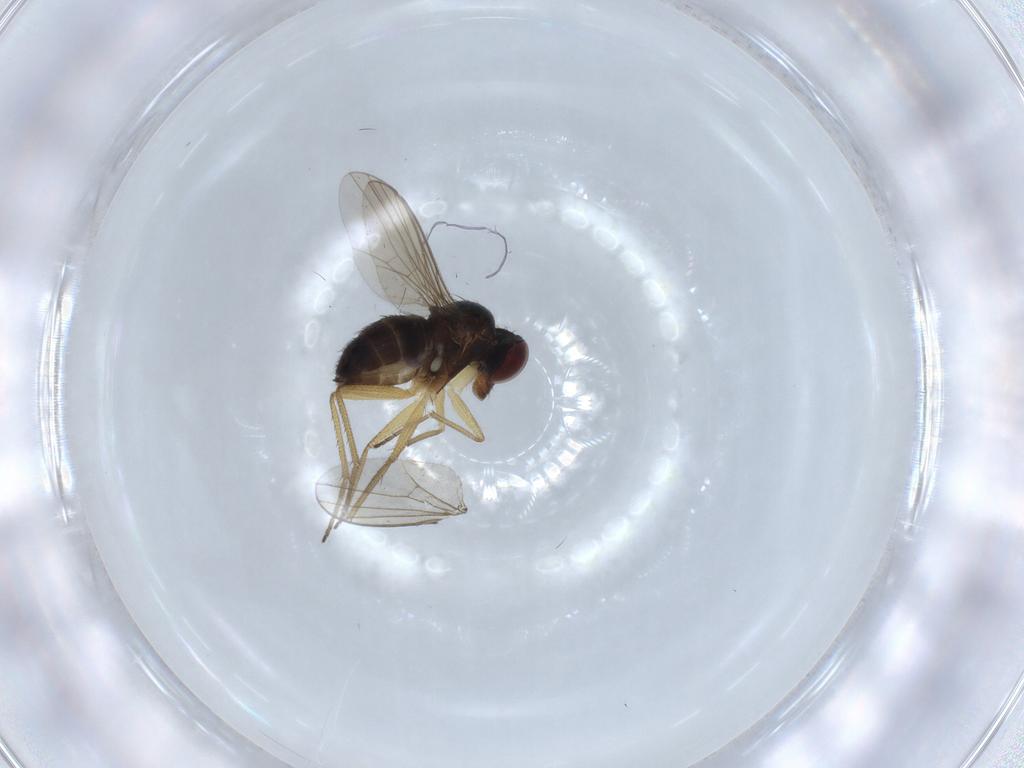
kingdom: Animalia
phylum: Arthropoda
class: Insecta
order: Diptera
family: Dolichopodidae
